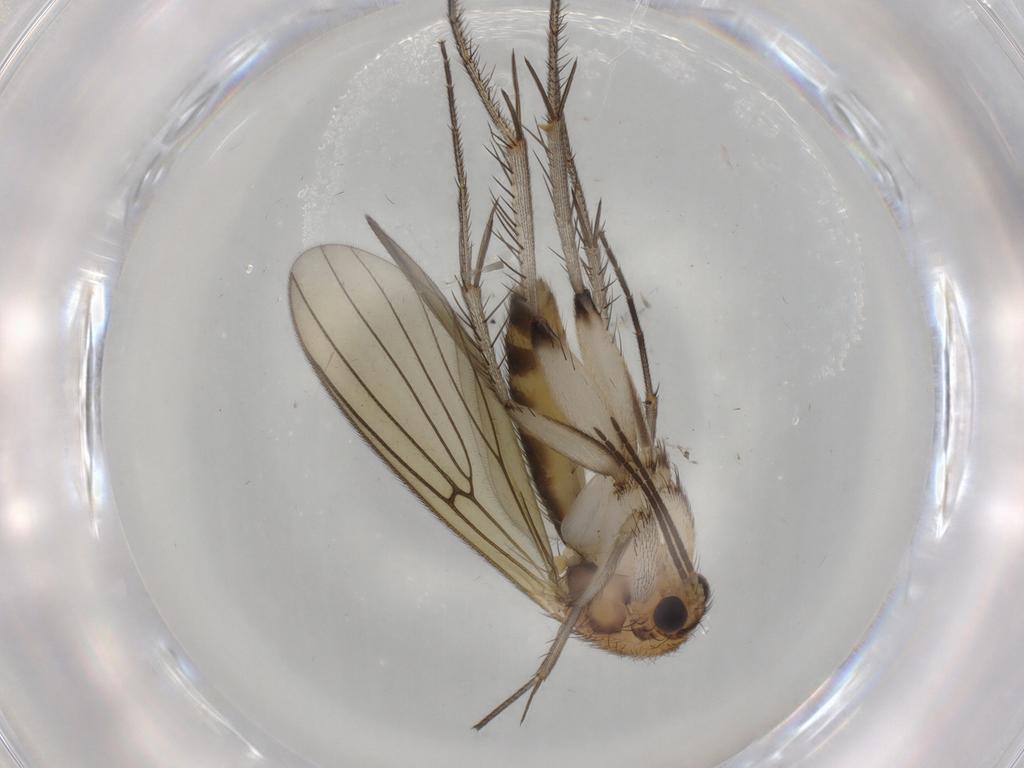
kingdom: Animalia
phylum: Arthropoda
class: Insecta
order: Diptera
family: Mycetophilidae
